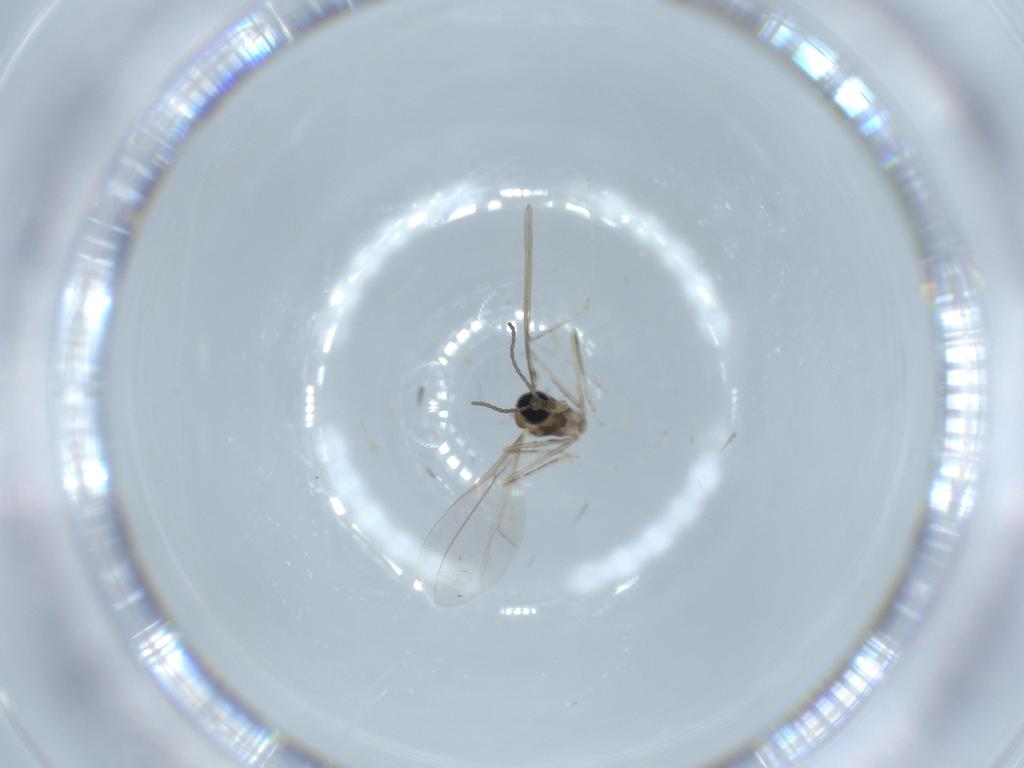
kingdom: Animalia
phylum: Arthropoda
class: Insecta
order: Diptera
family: Cecidomyiidae
